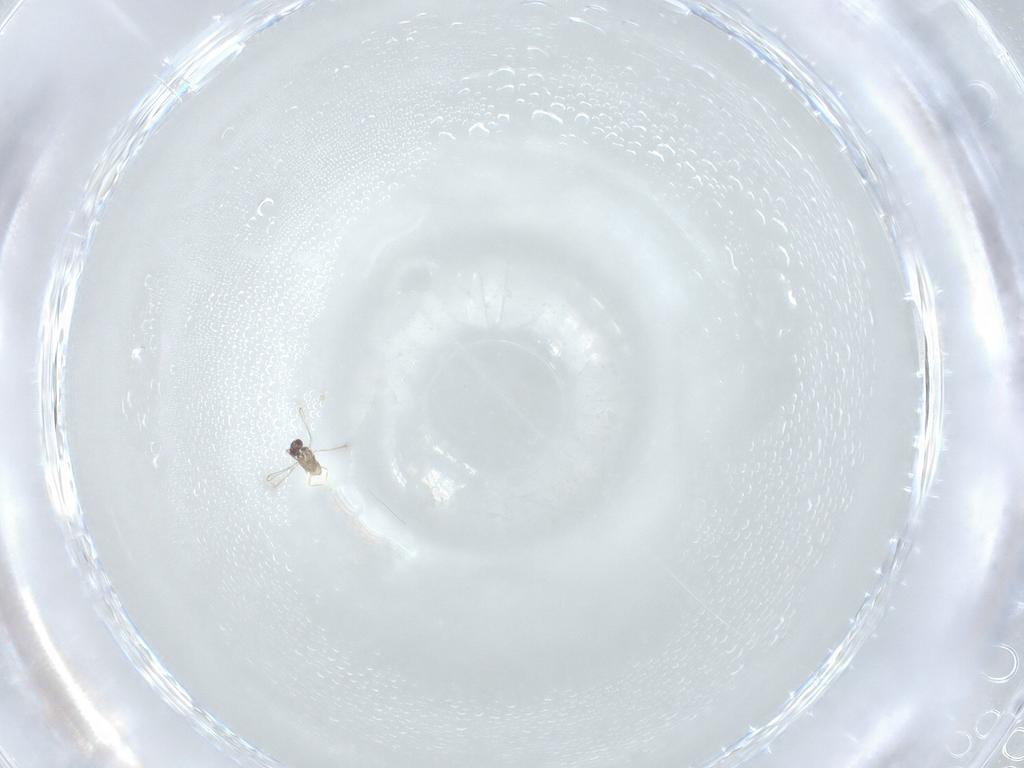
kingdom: Animalia
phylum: Arthropoda
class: Insecta
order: Diptera
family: Cecidomyiidae
